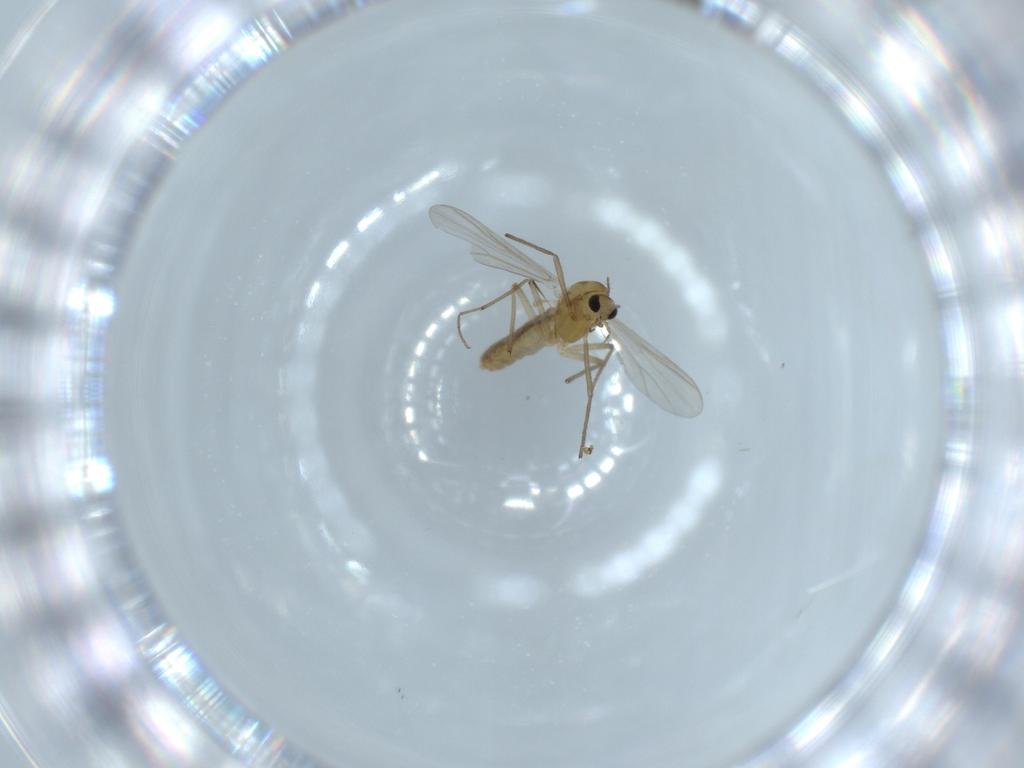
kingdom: Animalia
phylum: Arthropoda
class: Insecta
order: Diptera
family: Chironomidae
